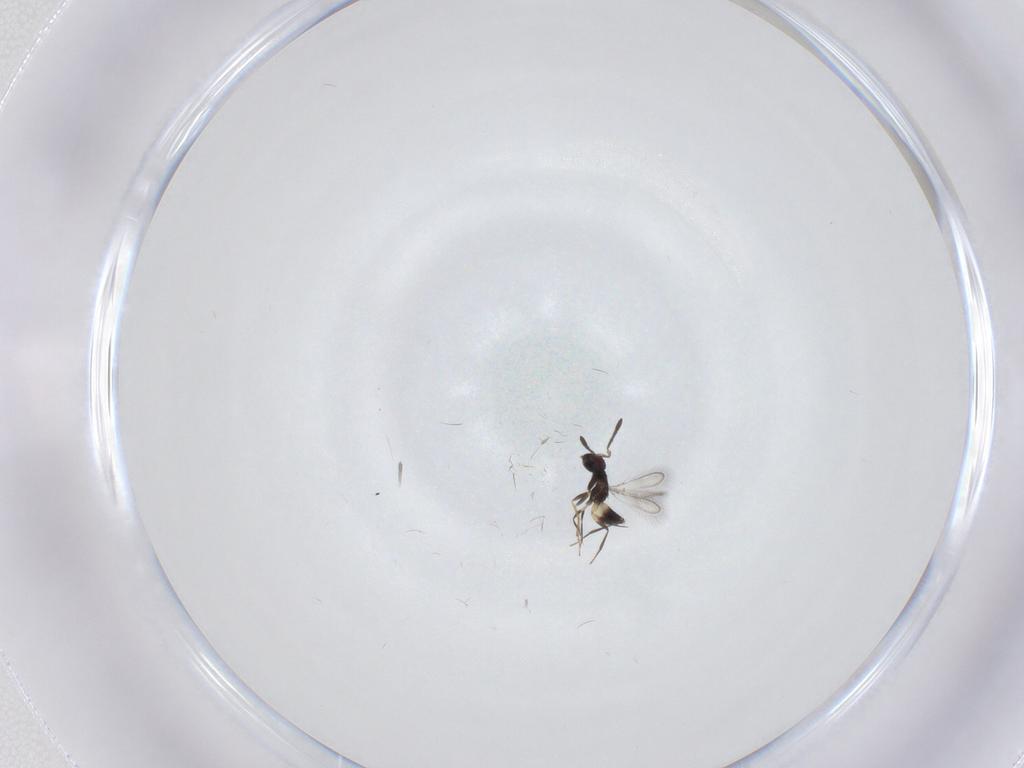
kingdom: Animalia
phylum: Arthropoda
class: Insecta
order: Hymenoptera
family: Mymaridae
